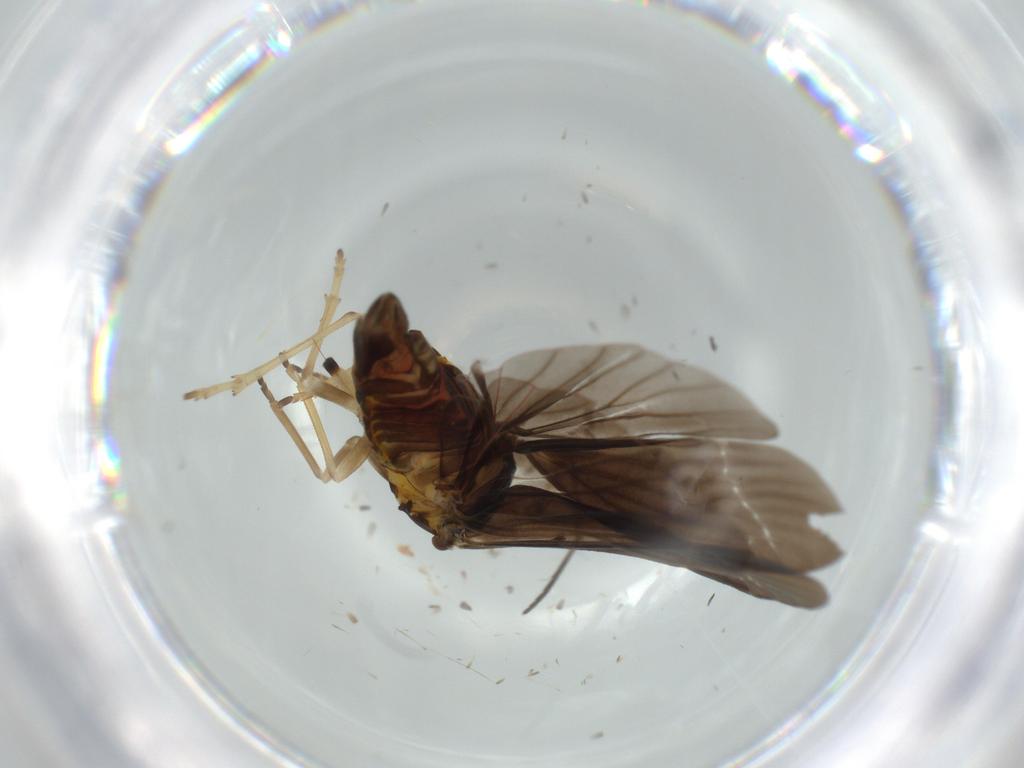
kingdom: Animalia
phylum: Arthropoda
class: Insecta
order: Hemiptera
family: Derbidae
